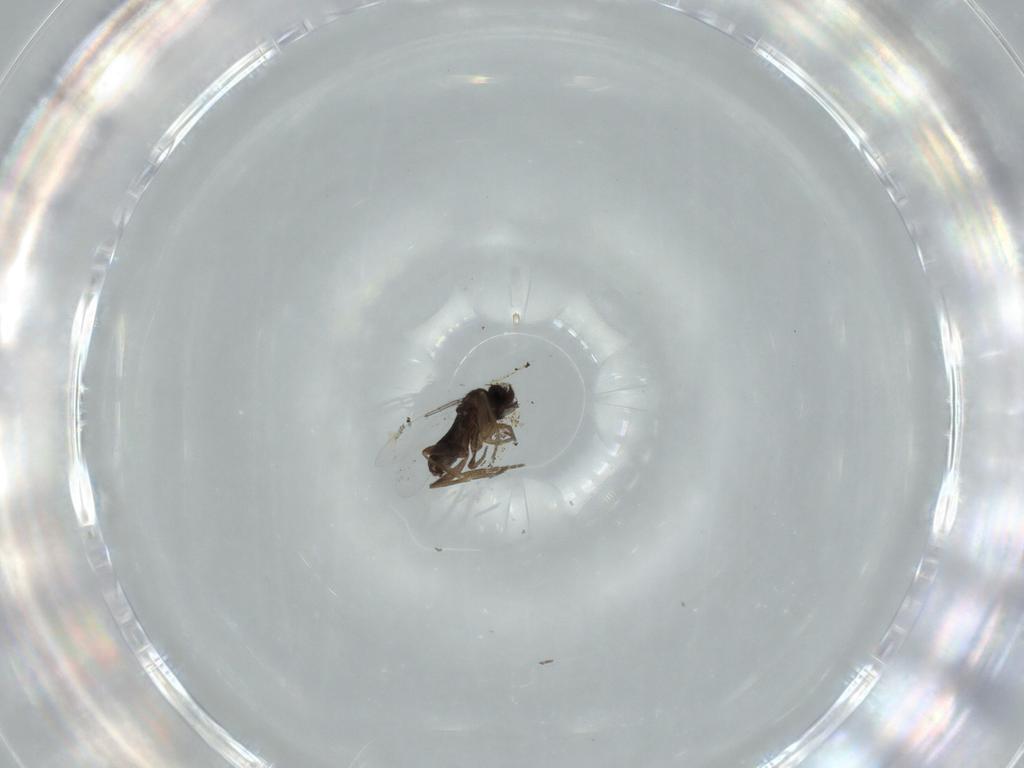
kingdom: Animalia
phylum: Arthropoda
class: Insecta
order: Diptera
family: Phoridae
